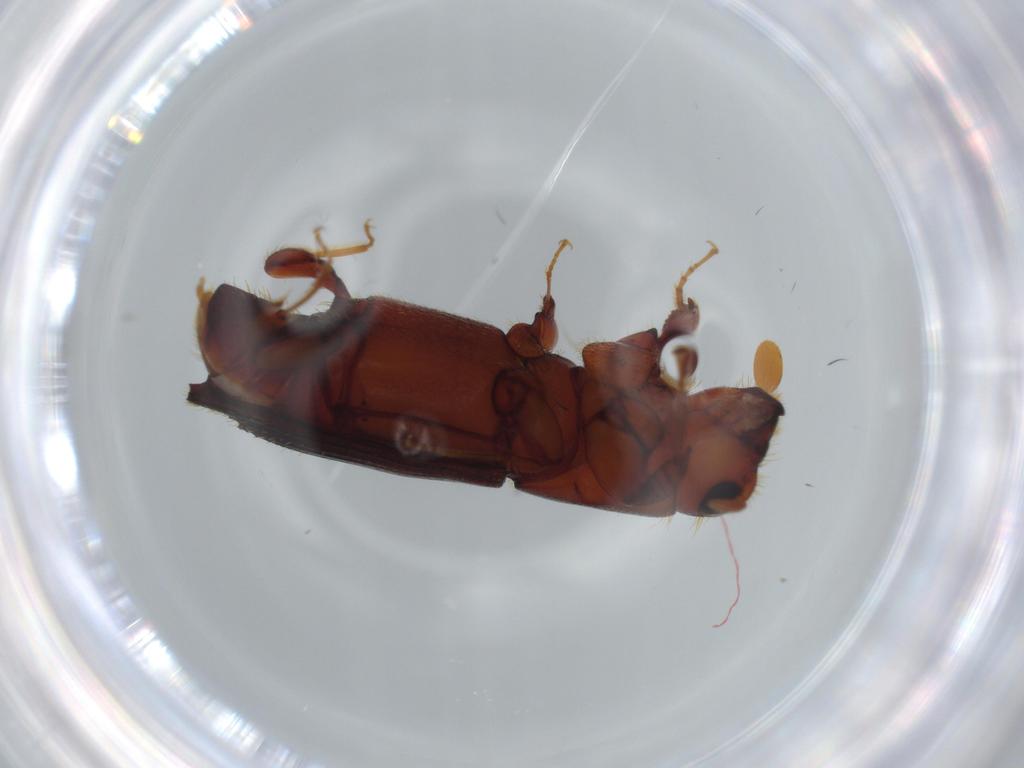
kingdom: Animalia
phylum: Arthropoda
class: Insecta
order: Coleoptera
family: Curculionidae
